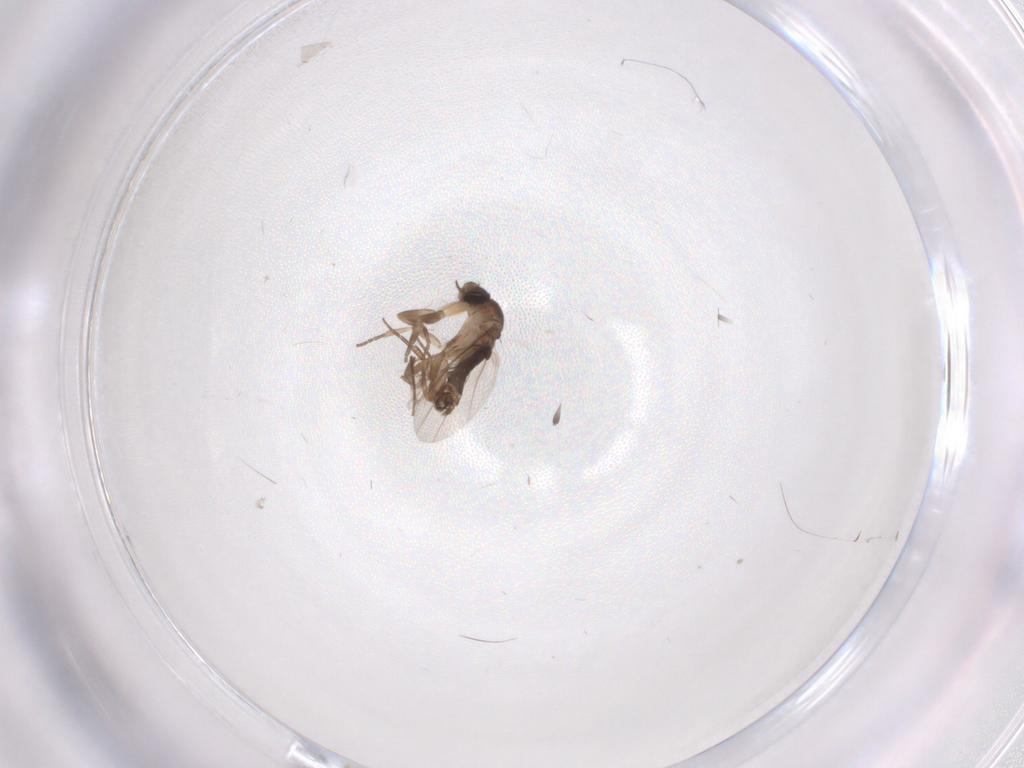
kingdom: Animalia
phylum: Arthropoda
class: Insecta
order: Diptera
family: Phoridae
